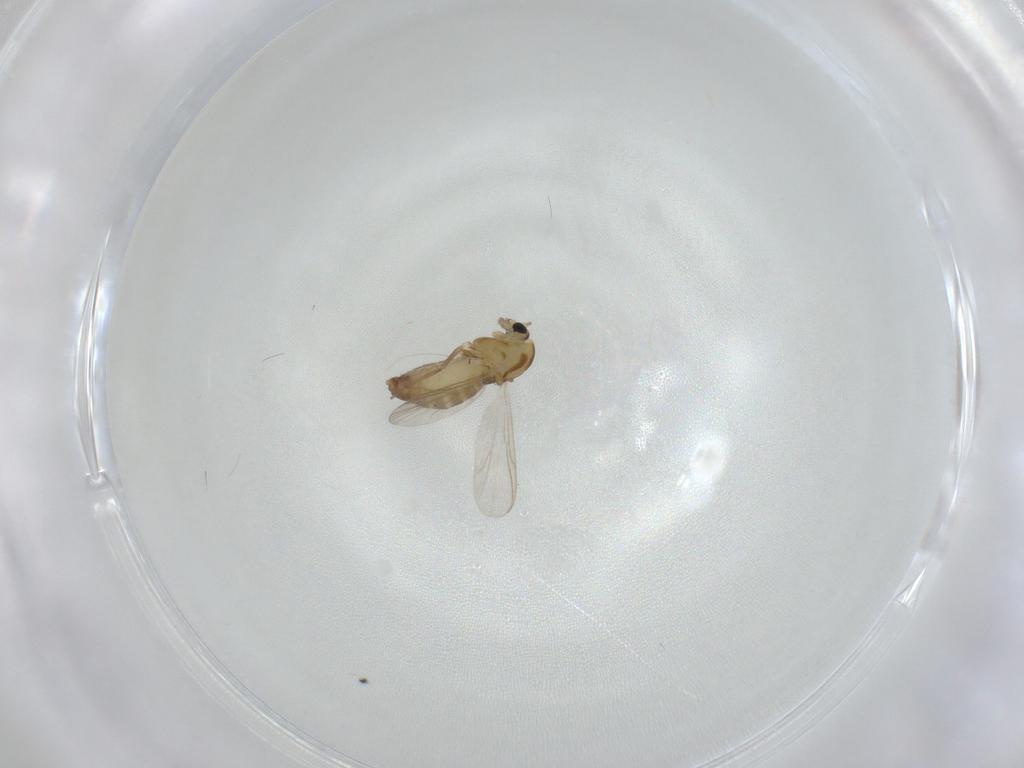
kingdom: Animalia
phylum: Arthropoda
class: Insecta
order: Diptera
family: Chironomidae
